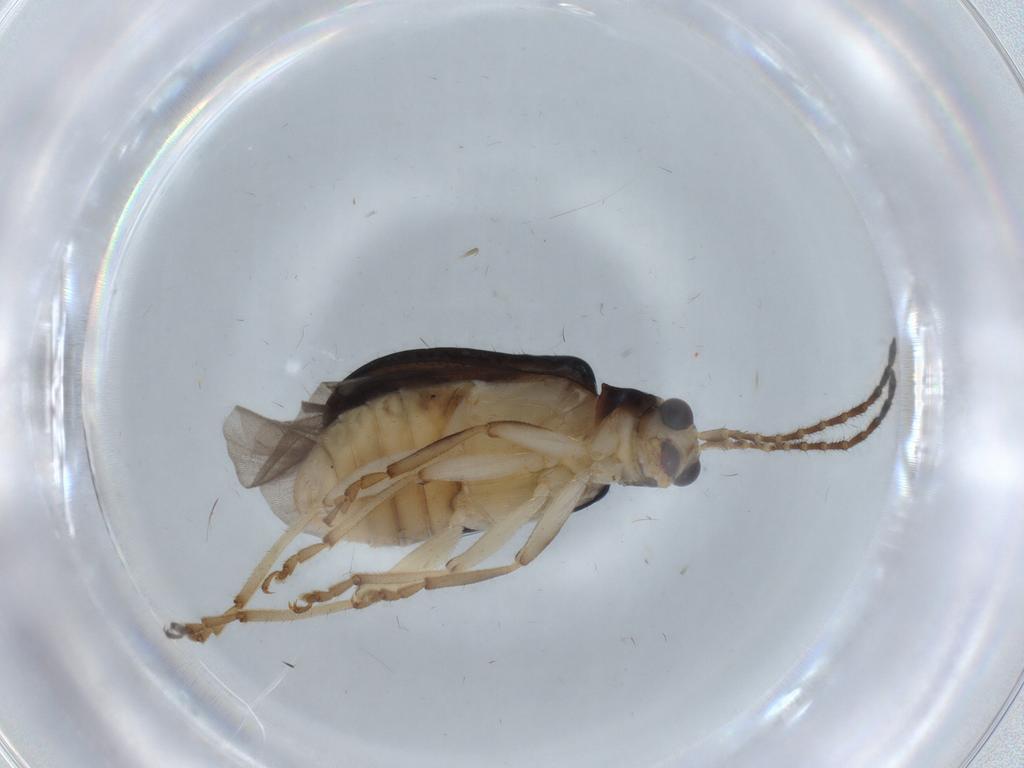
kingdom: Animalia
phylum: Arthropoda
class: Insecta
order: Coleoptera
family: Chrysomelidae
